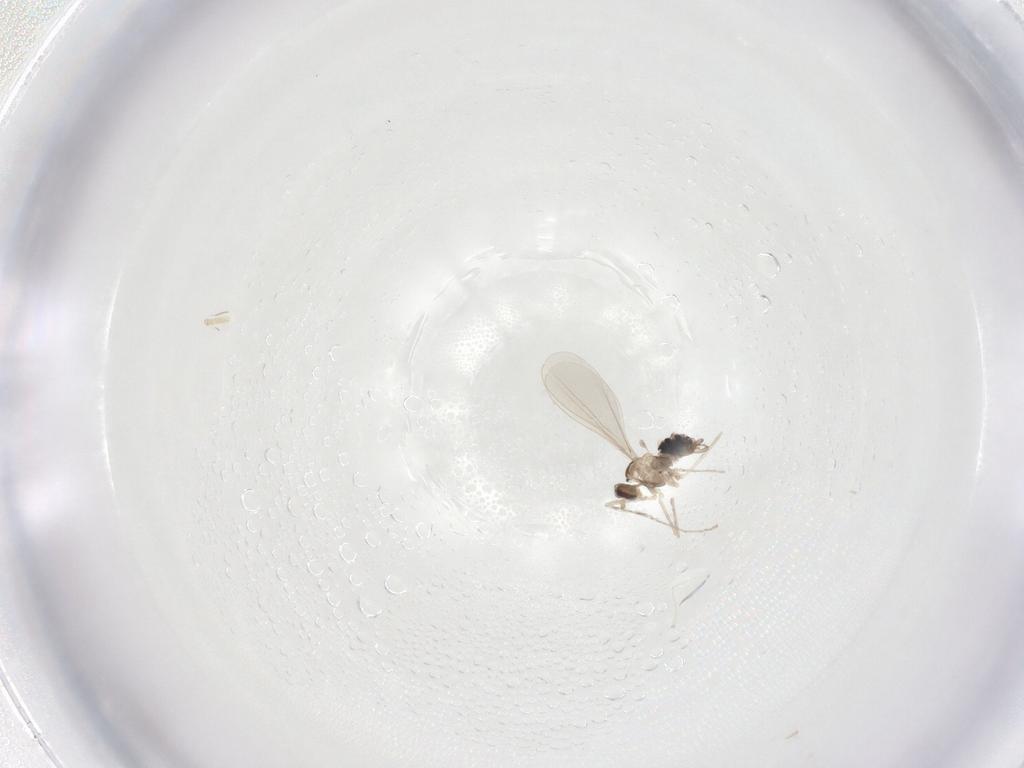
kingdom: Animalia
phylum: Arthropoda
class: Insecta
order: Diptera
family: Cecidomyiidae
